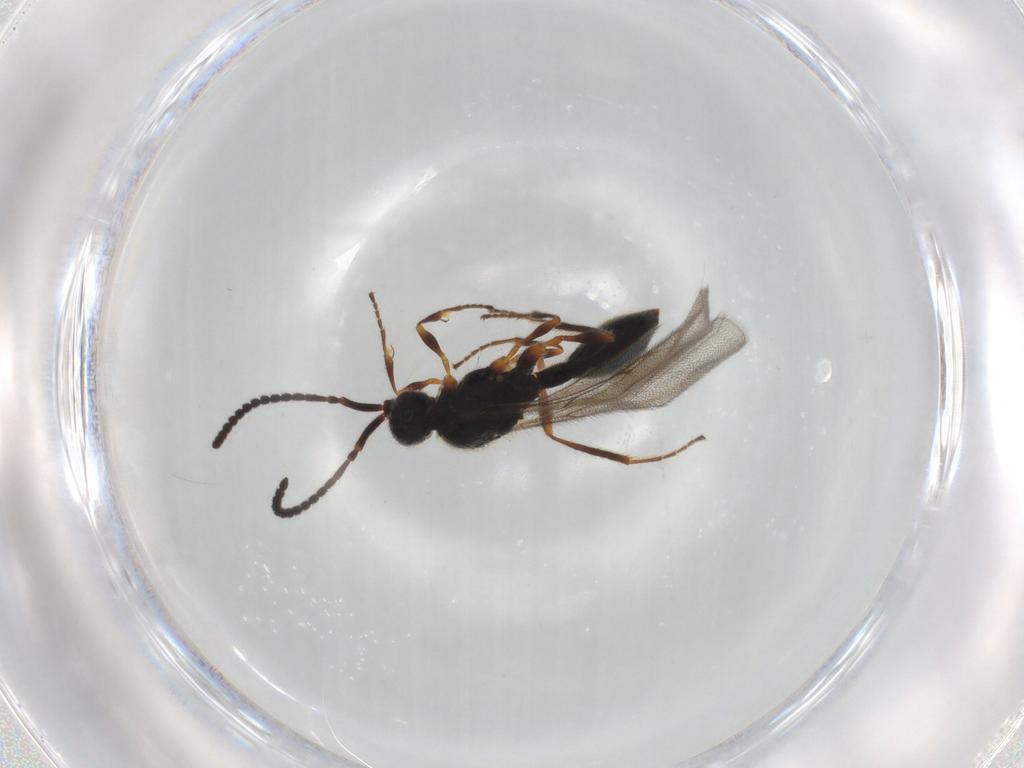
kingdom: Animalia
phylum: Arthropoda
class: Insecta
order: Hymenoptera
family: Diapriidae
